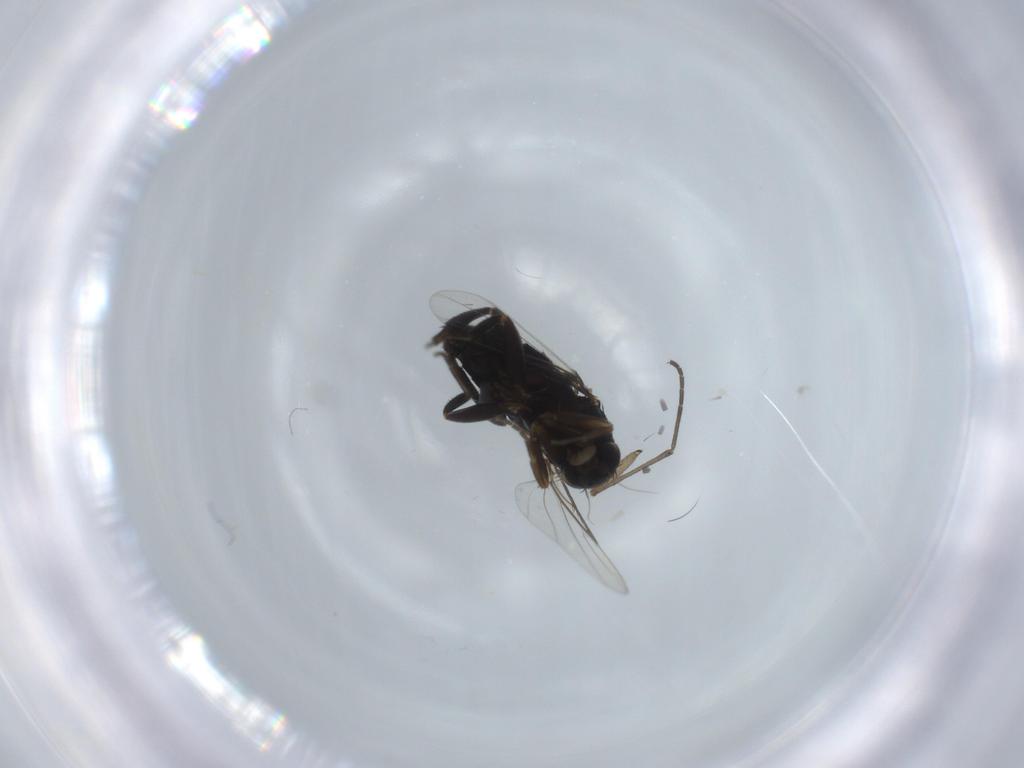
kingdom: Animalia
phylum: Arthropoda
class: Insecta
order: Diptera
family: Phoridae
